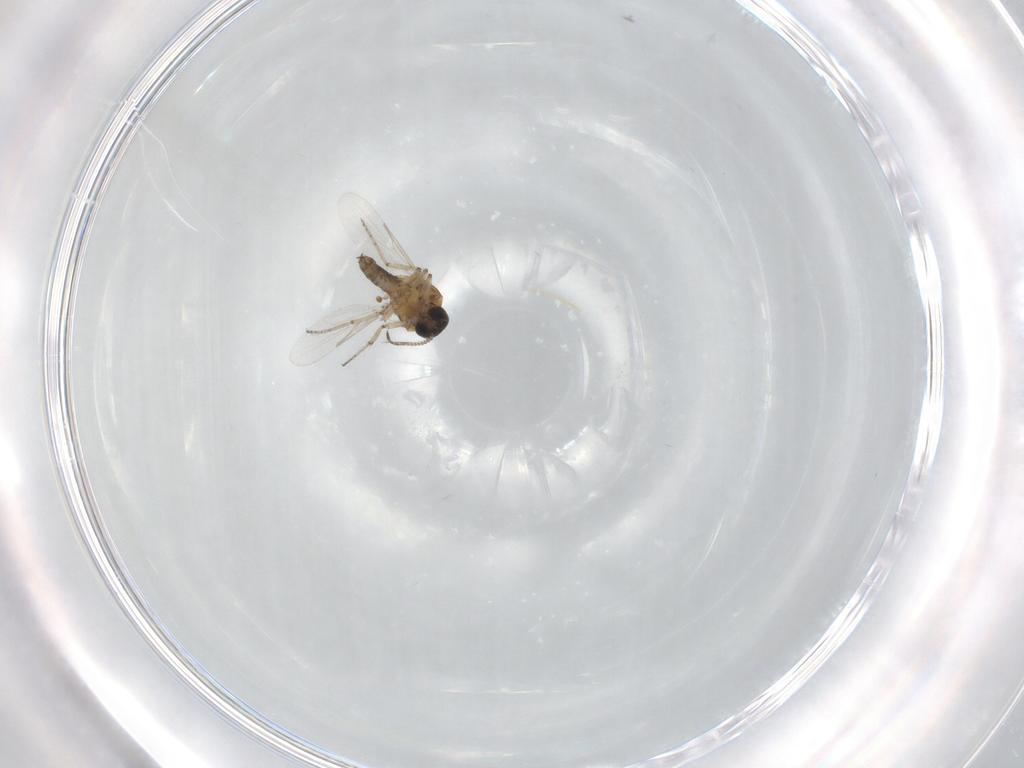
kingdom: Animalia
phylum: Arthropoda
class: Insecta
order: Diptera
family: Ceratopogonidae
